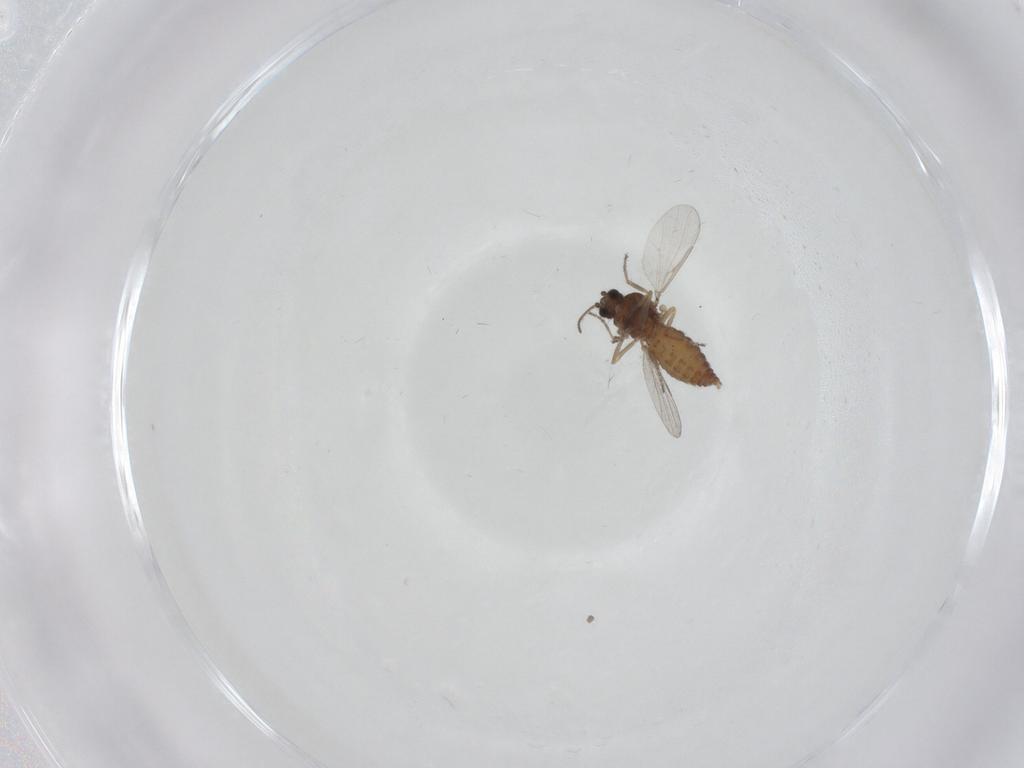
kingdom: Animalia
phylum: Arthropoda
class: Insecta
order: Diptera
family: Ceratopogonidae
